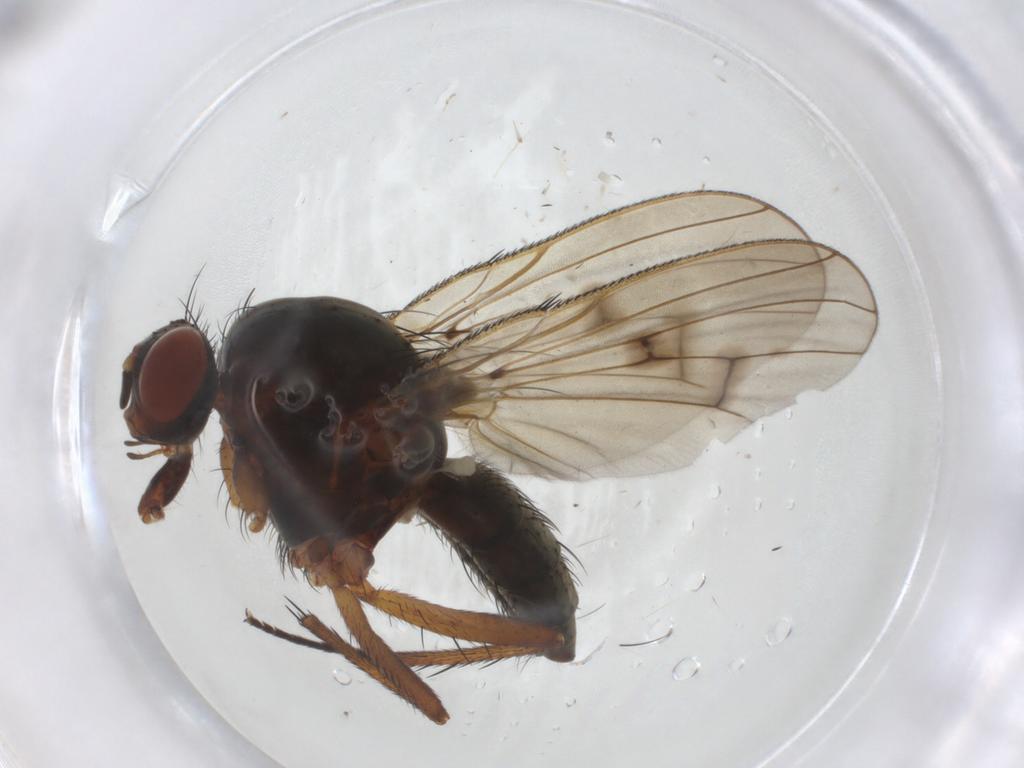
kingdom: Animalia
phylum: Arthropoda
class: Insecta
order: Diptera
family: Anthomyiidae
